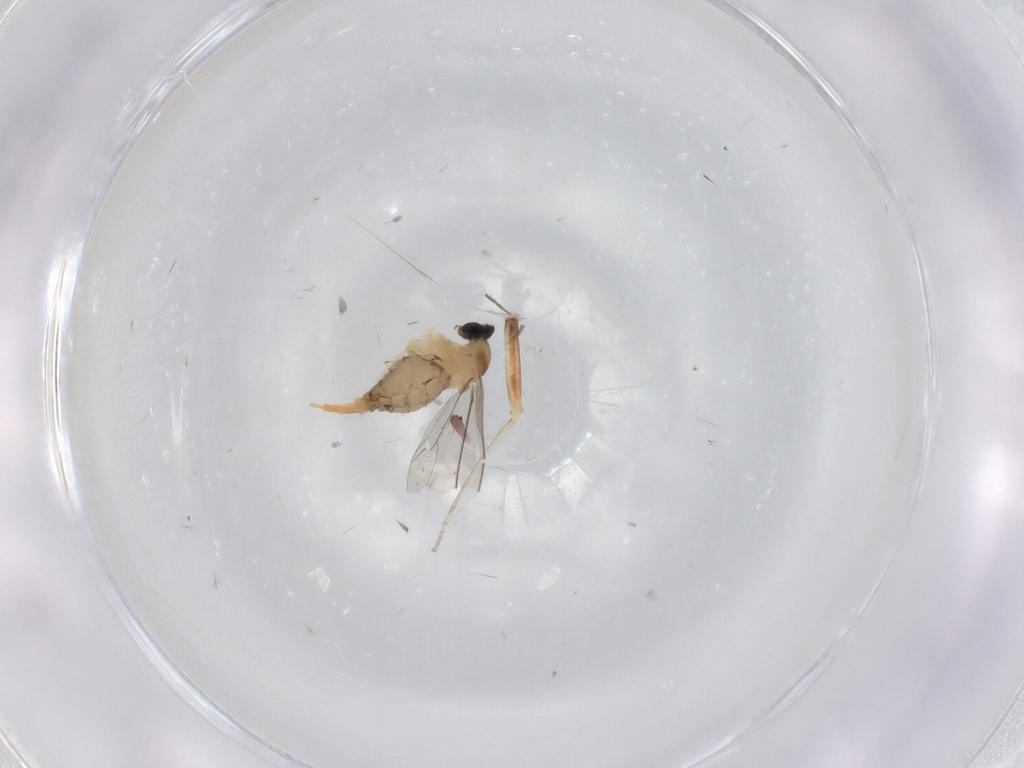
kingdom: Animalia
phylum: Arthropoda
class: Insecta
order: Diptera
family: Cecidomyiidae
